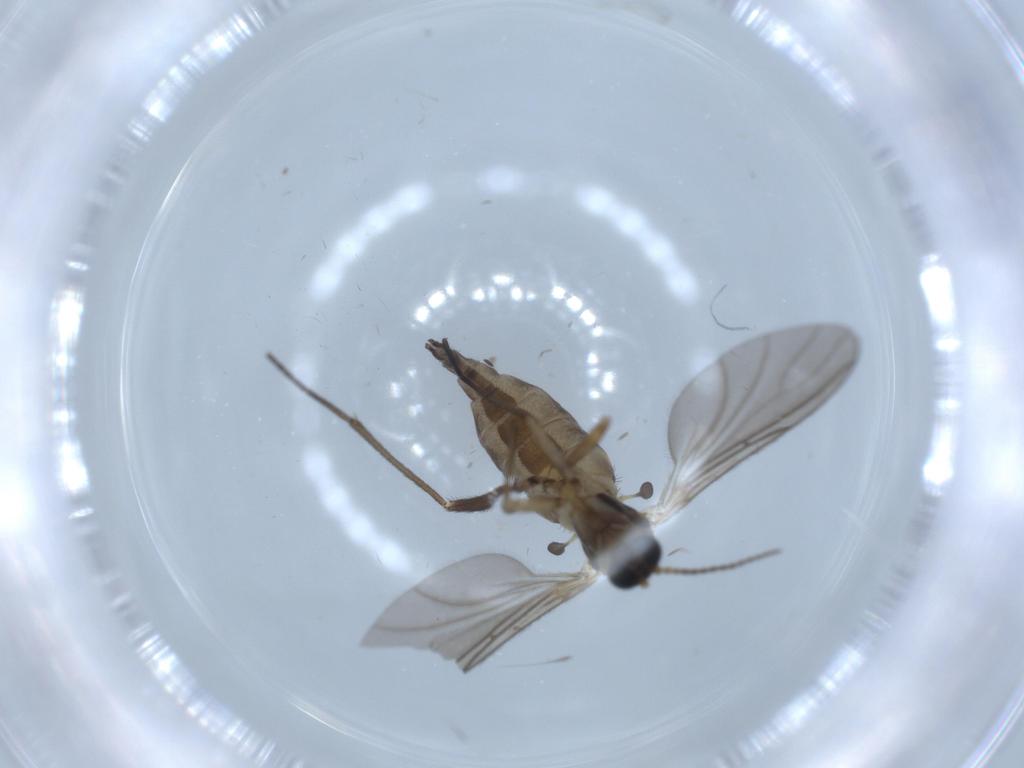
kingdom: Animalia
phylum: Arthropoda
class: Insecta
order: Diptera
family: Sciaridae
